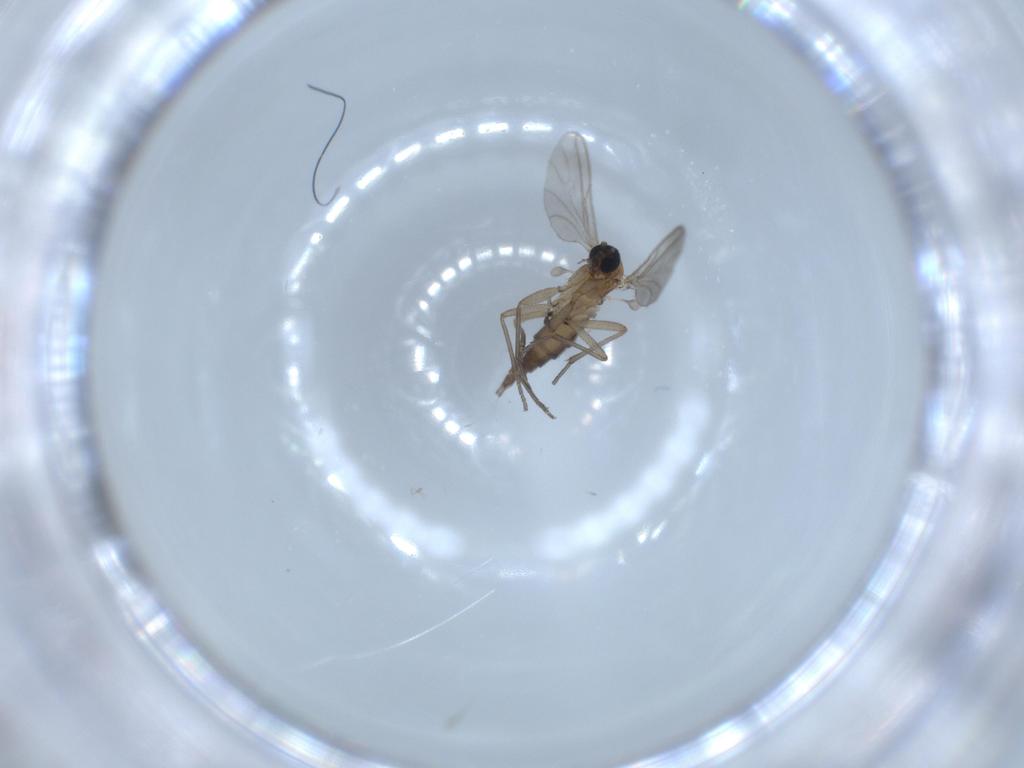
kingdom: Animalia
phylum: Arthropoda
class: Insecta
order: Diptera
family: Sciaridae
